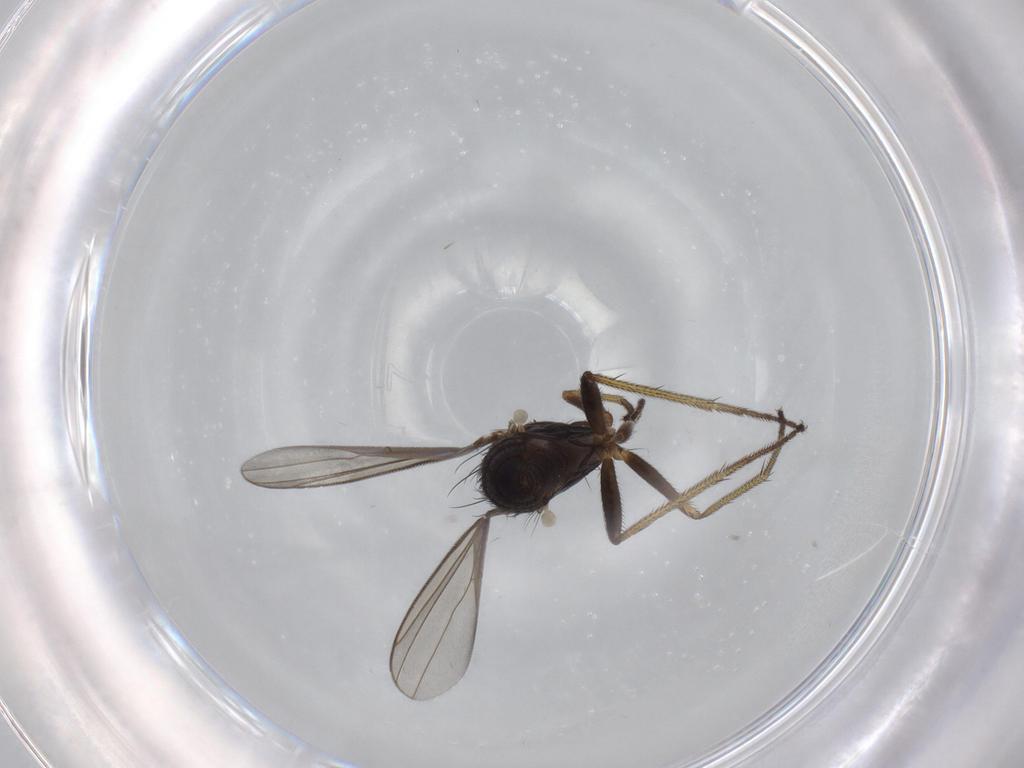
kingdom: Animalia
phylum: Arthropoda
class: Insecta
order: Diptera
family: Dolichopodidae
